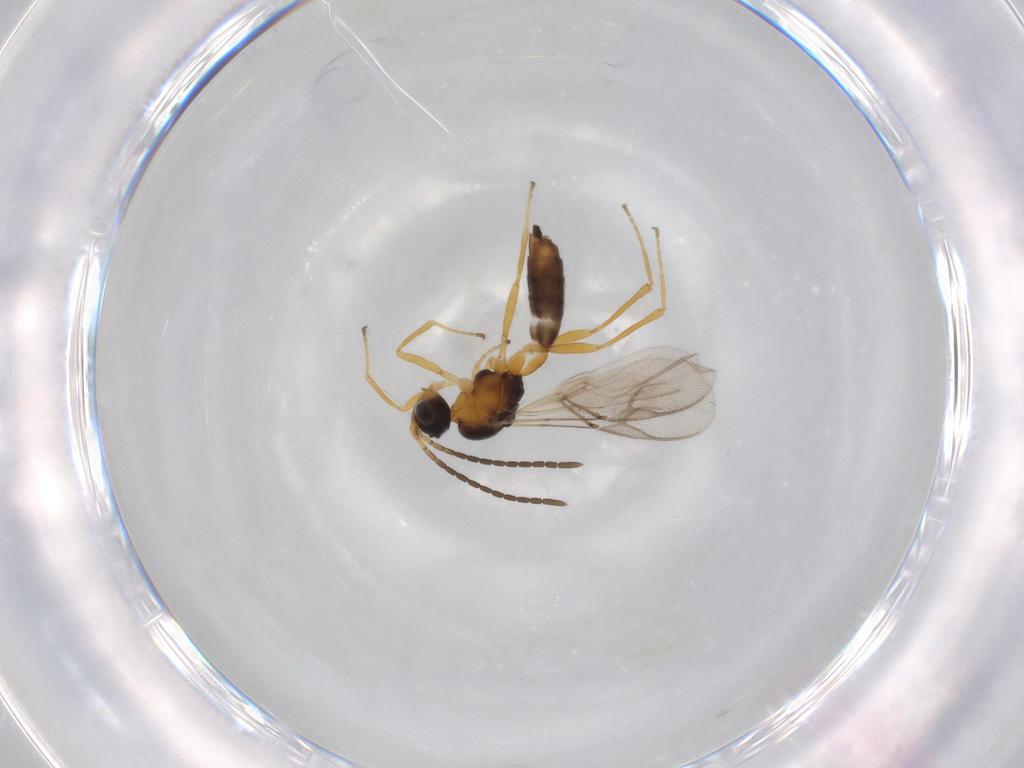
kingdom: Animalia
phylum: Arthropoda
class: Insecta
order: Hymenoptera
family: Braconidae
